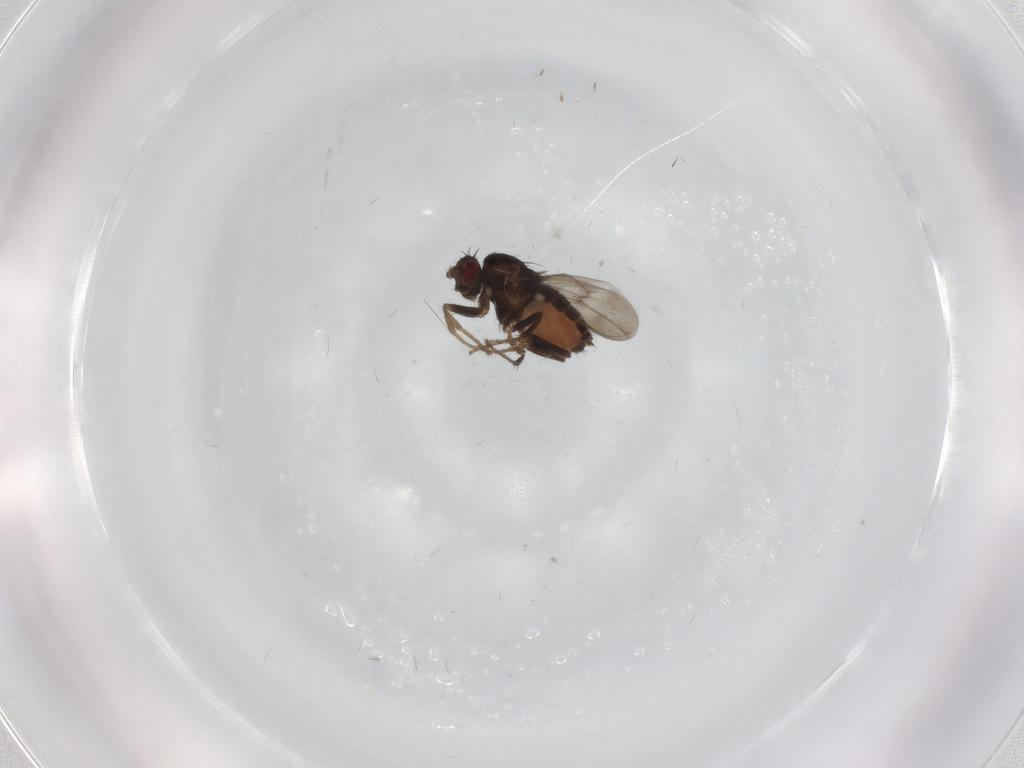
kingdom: Animalia
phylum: Arthropoda
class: Insecta
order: Diptera
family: Sphaeroceridae
